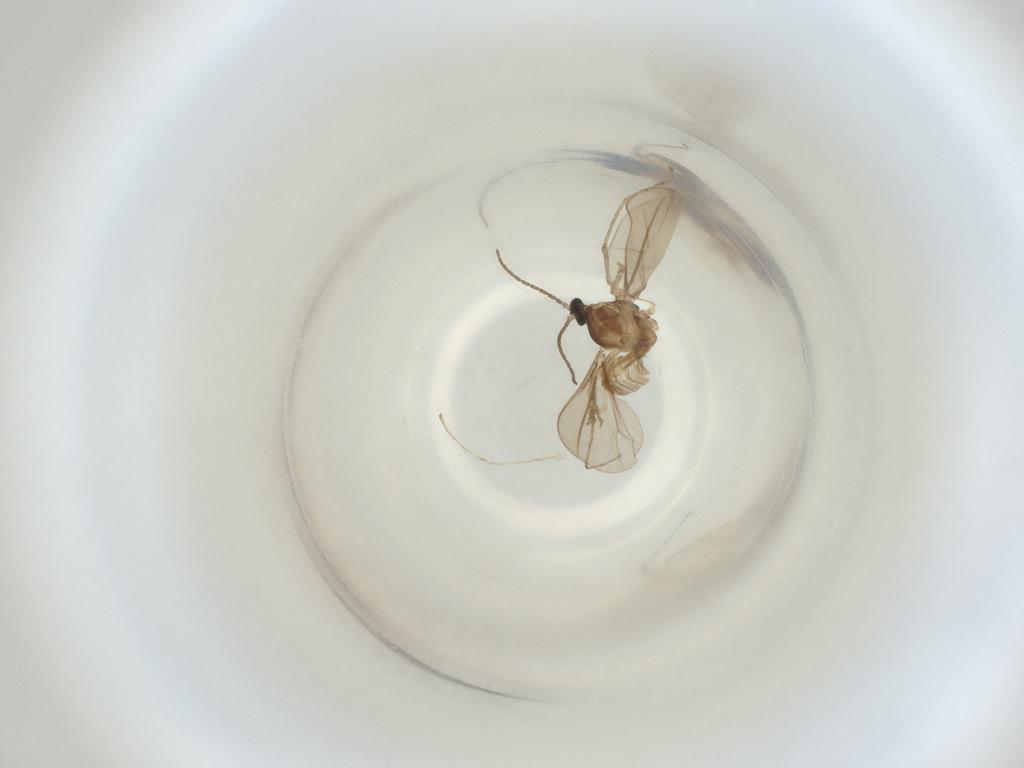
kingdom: Animalia
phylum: Arthropoda
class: Insecta
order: Diptera
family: Cecidomyiidae
